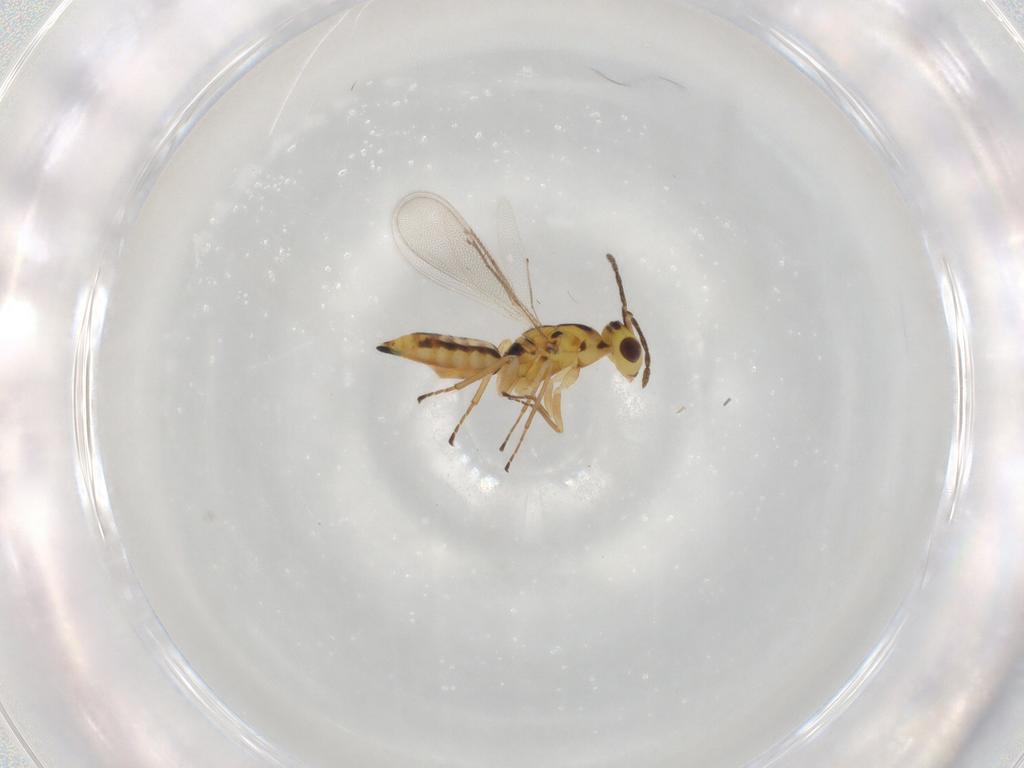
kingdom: Animalia
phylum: Arthropoda
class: Insecta
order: Hymenoptera
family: Eulophidae
